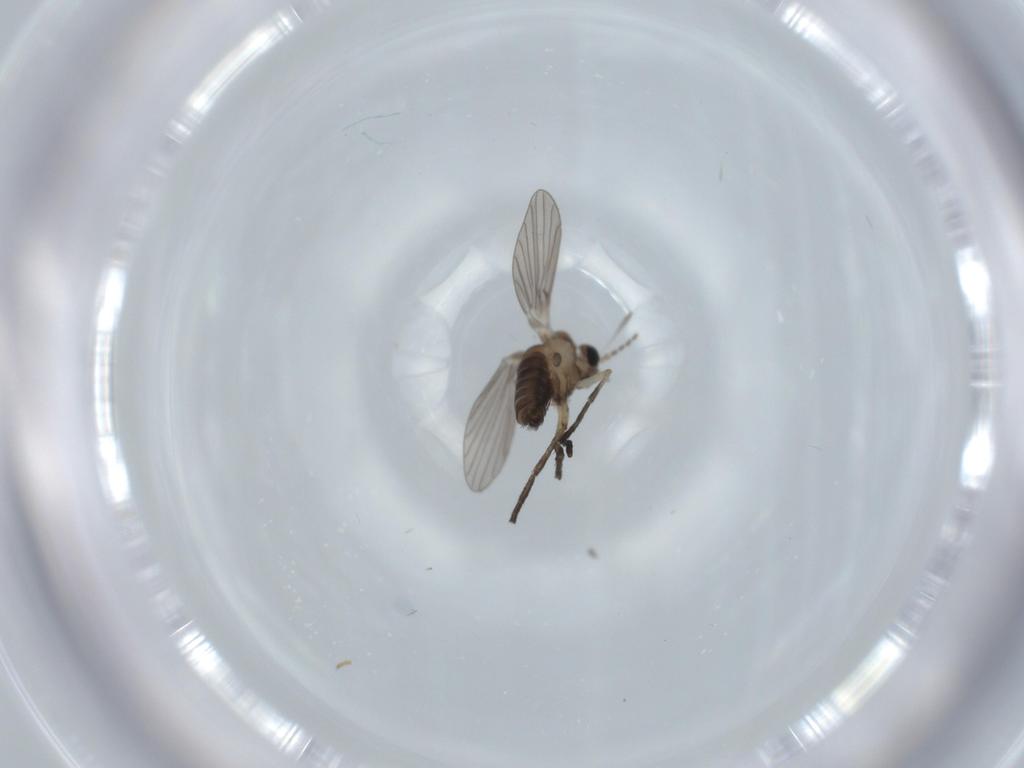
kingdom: Animalia
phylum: Arthropoda
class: Insecta
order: Diptera
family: Psychodidae
